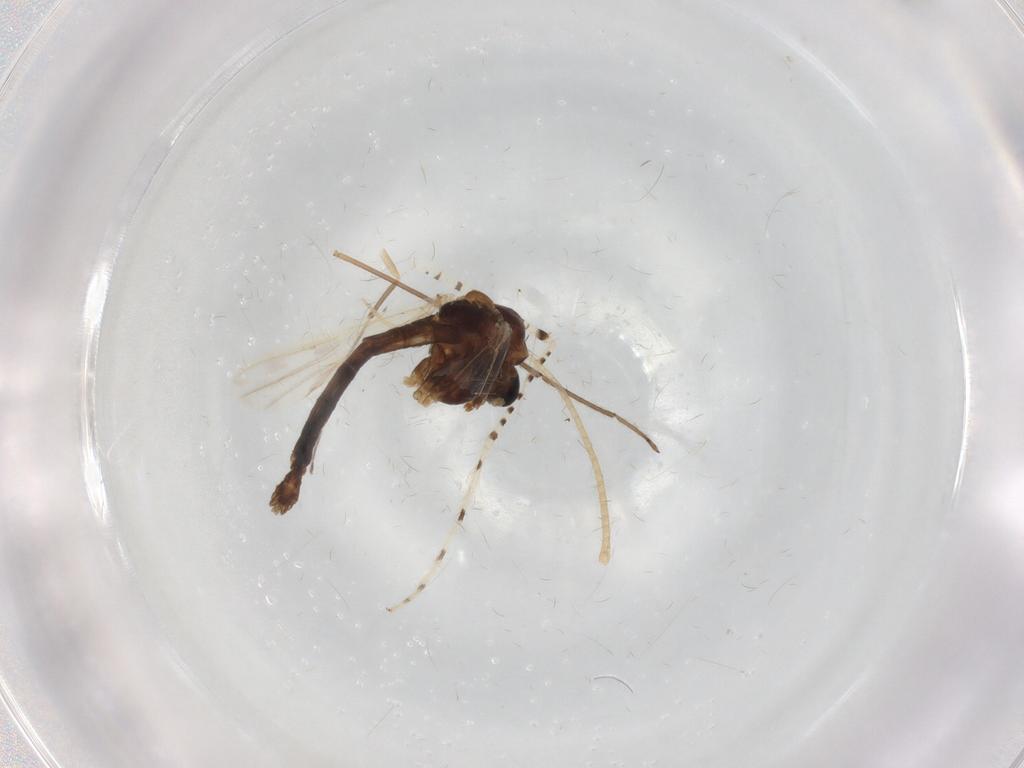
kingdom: Animalia
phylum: Arthropoda
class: Insecta
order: Diptera
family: Chironomidae
